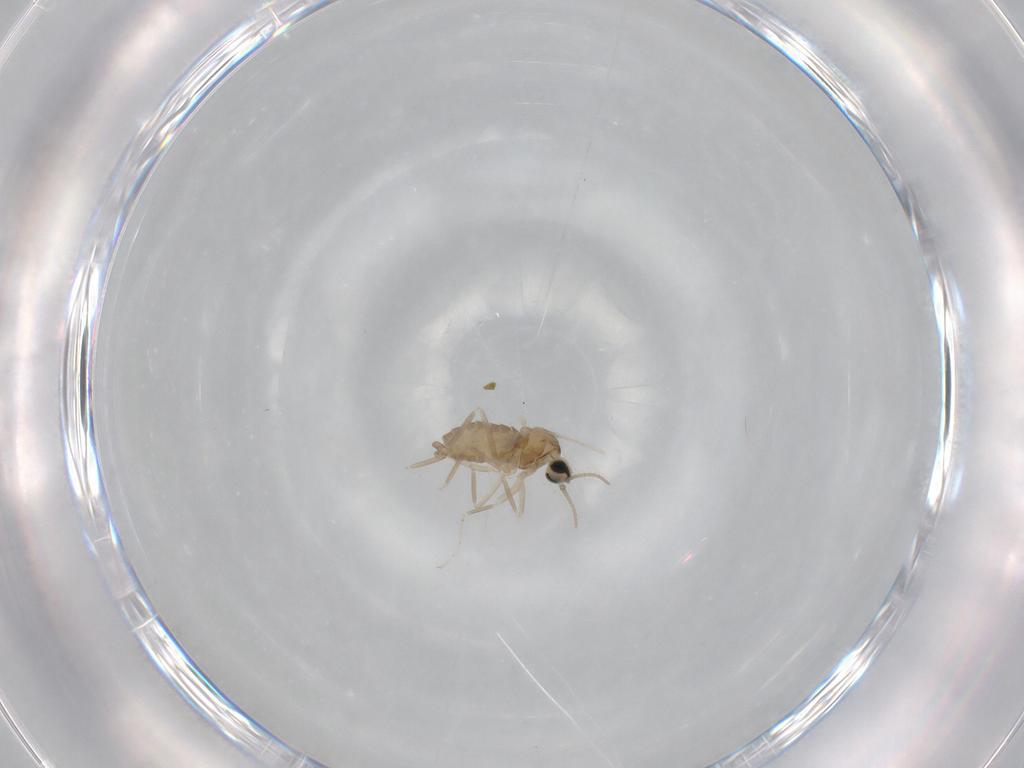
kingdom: Animalia
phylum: Arthropoda
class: Insecta
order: Diptera
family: Cecidomyiidae
